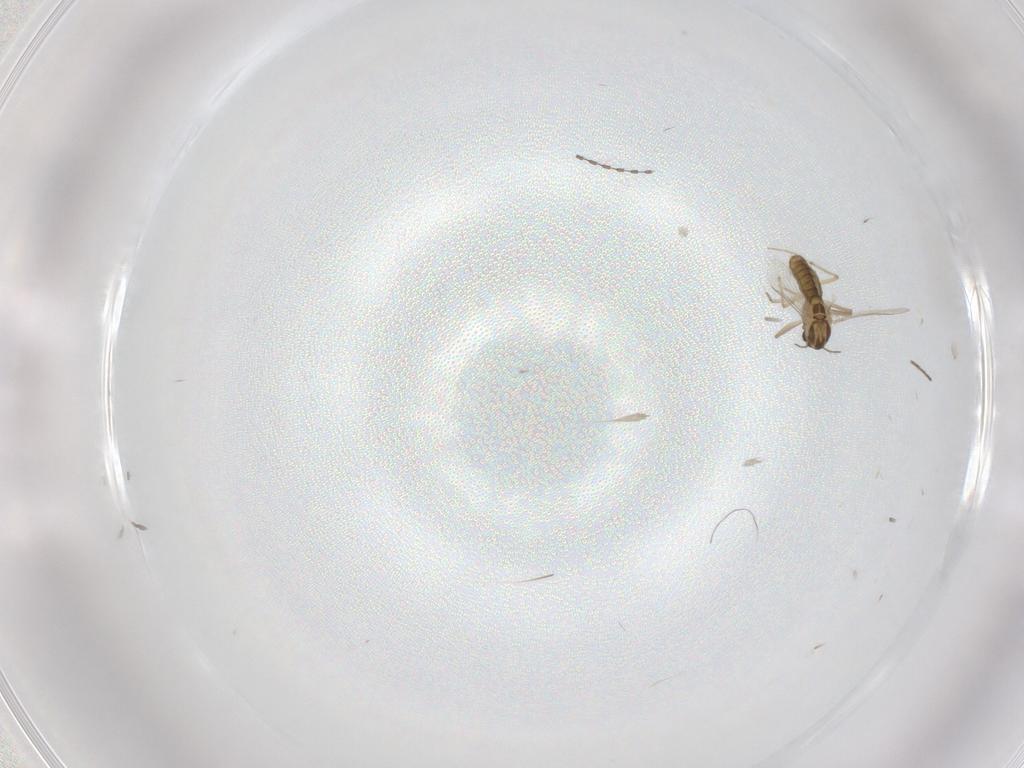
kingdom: Animalia
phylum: Arthropoda
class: Insecta
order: Diptera
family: Cecidomyiidae
